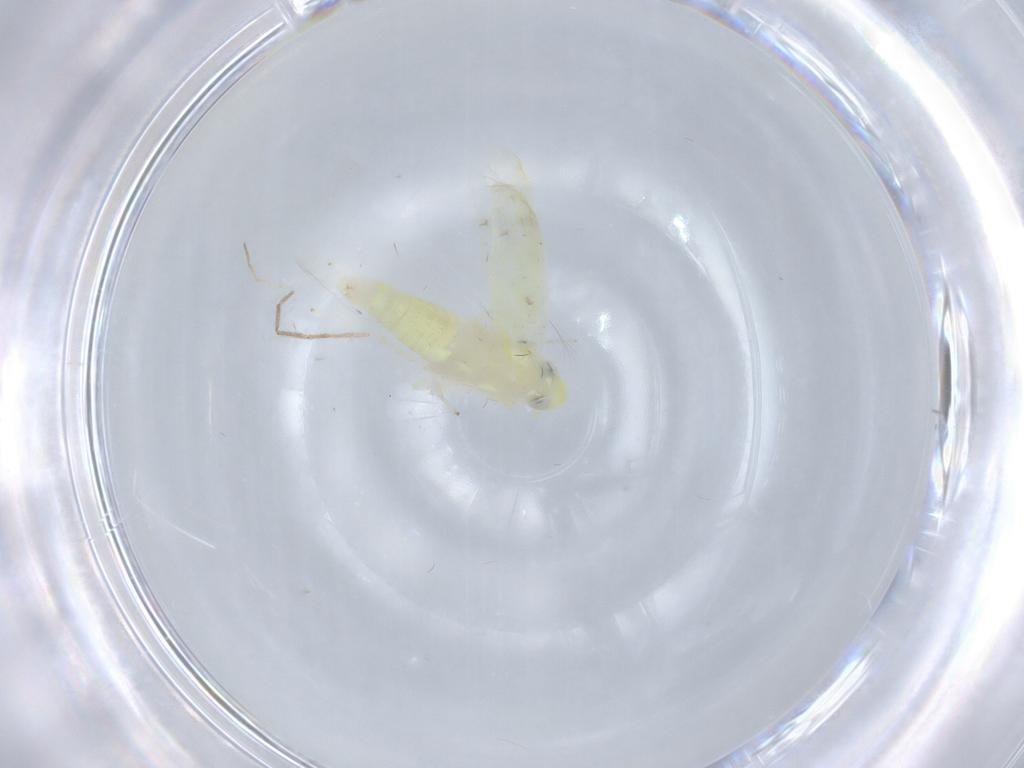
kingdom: Animalia
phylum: Arthropoda
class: Insecta
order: Hemiptera
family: Cicadellidae
